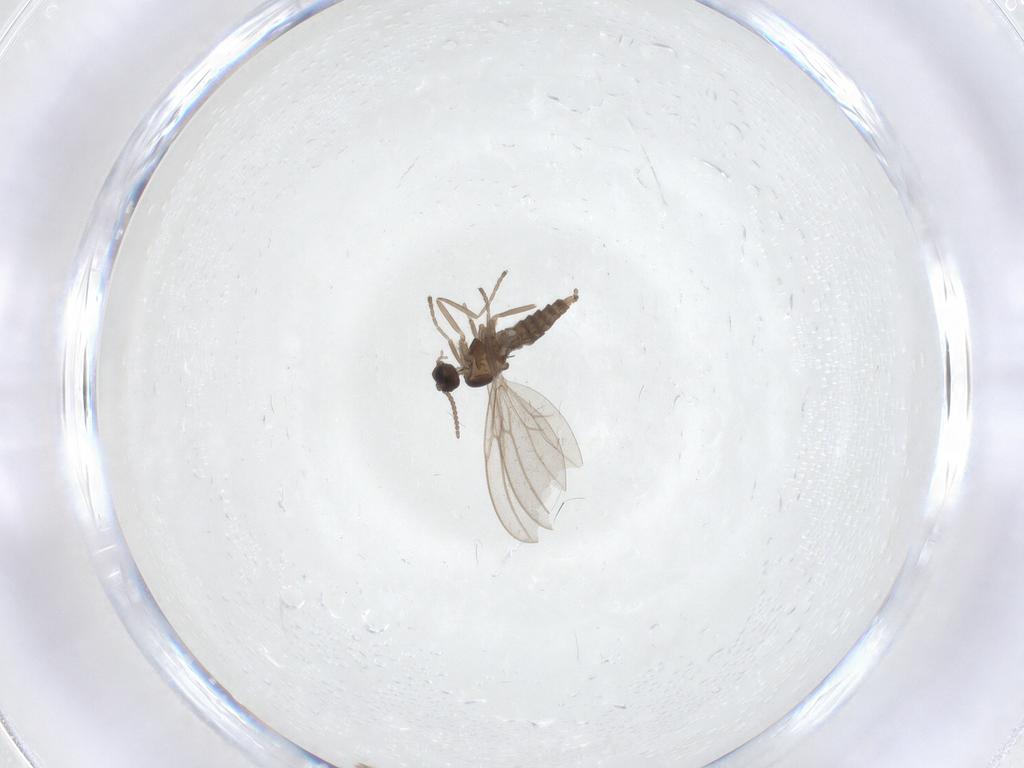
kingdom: Animalia
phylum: Arthropoda
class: Insecta
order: Diptera
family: Cecidomyiidae
